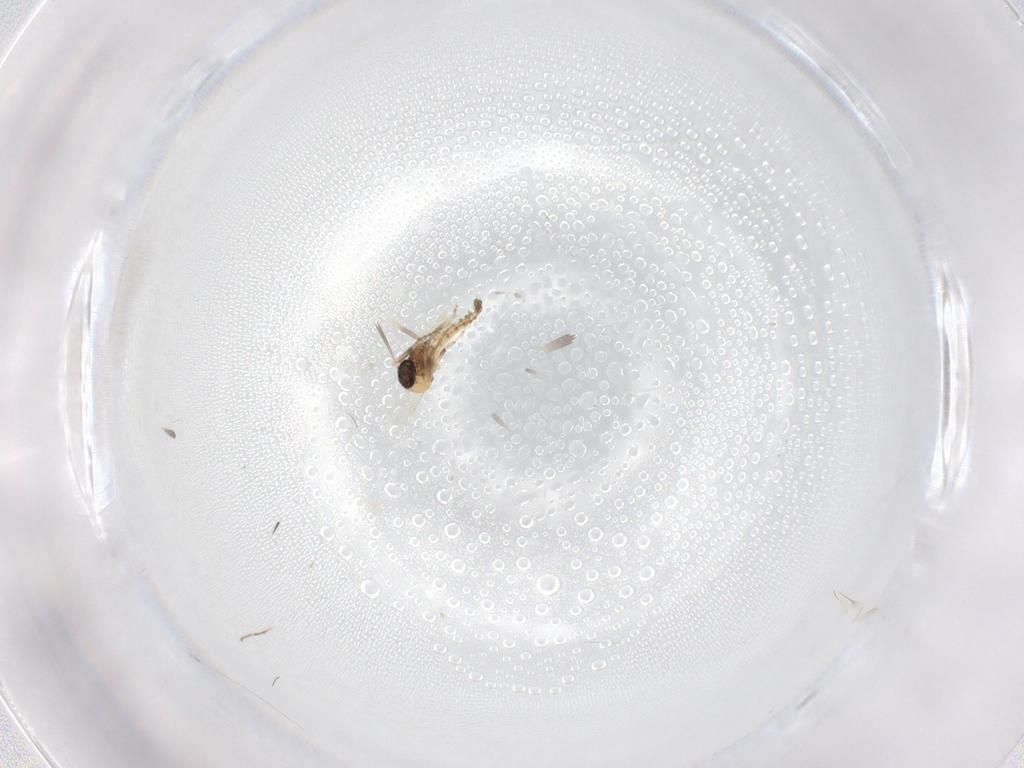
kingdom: Animalia
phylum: Arthropoda
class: Insecta
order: Diptera
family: Ceratopogonidae
